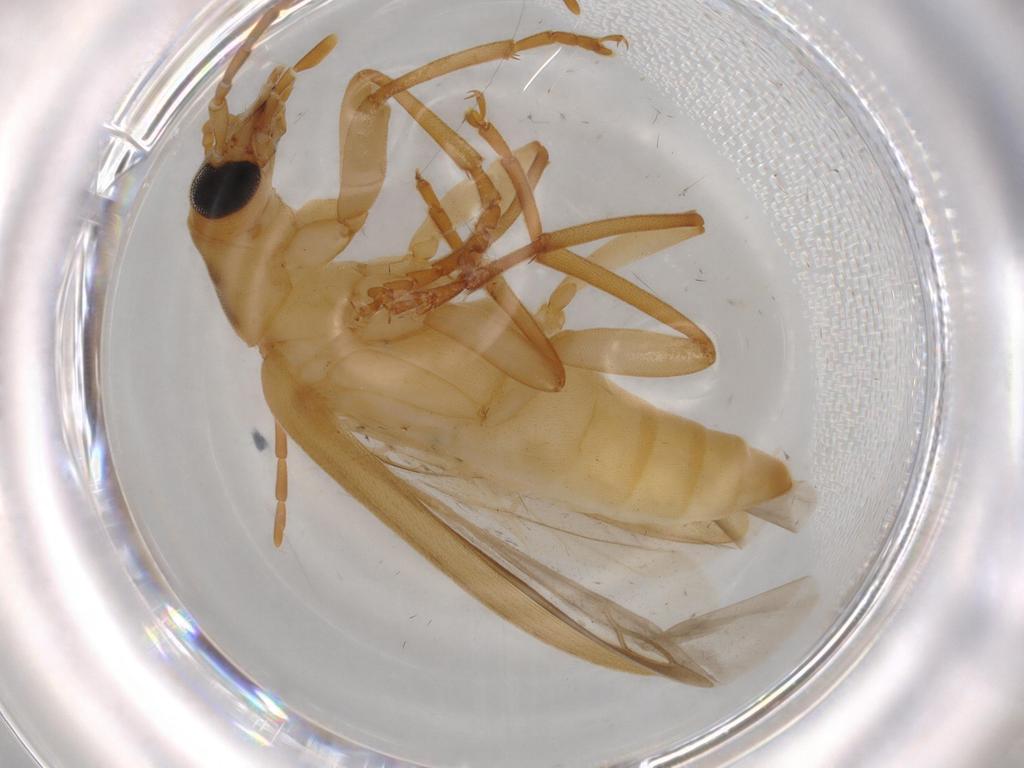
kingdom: Animalia
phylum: Arthropoda
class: Insecta
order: Coleoptera
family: Oedemeridae
